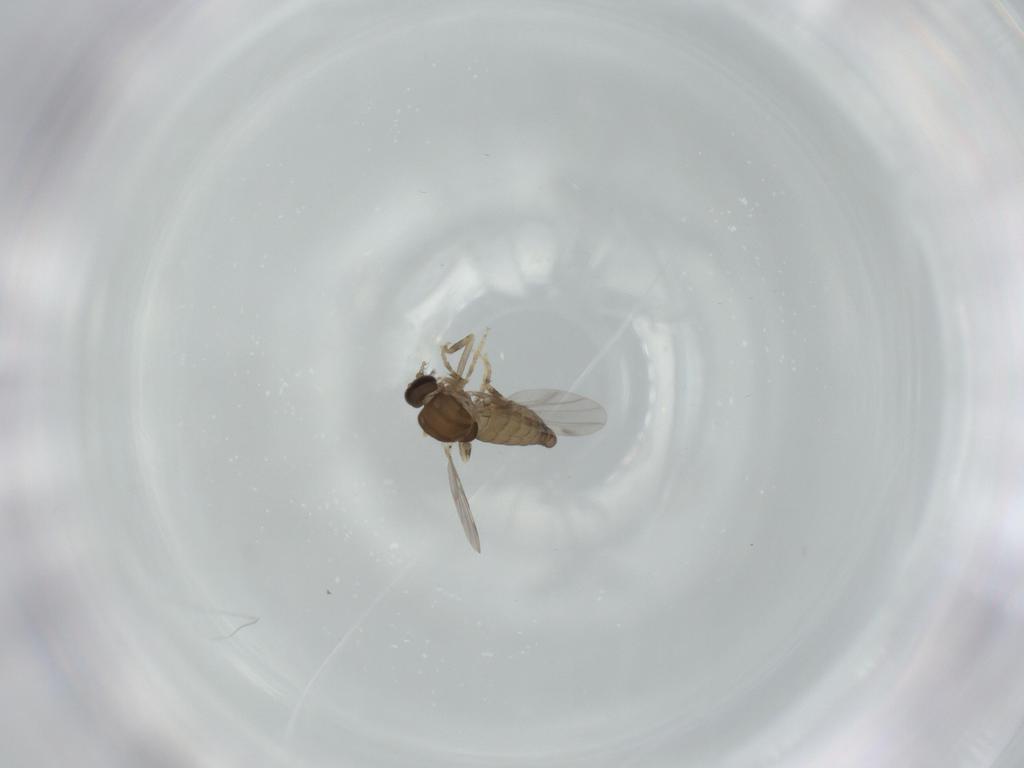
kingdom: Animalia
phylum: Arthropoda
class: Insecta
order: Diptera
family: Ceratopogonidae
